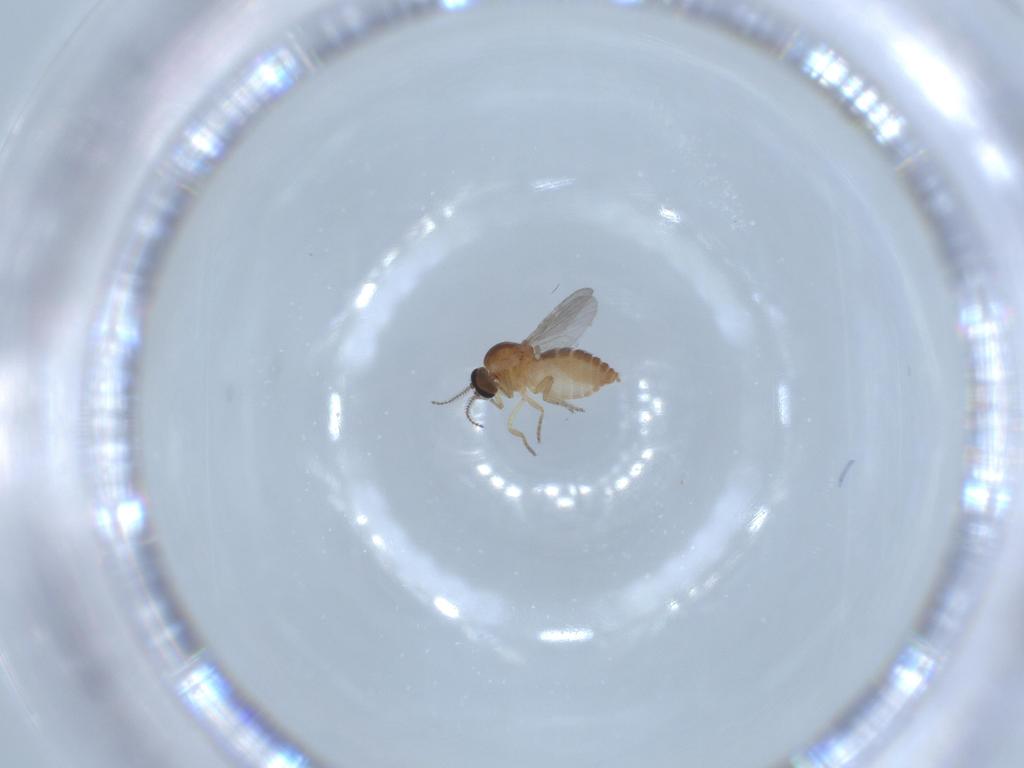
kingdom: Animalia
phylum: Arthropoda
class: Insecta
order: Diptera
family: Ceratopogonidae
